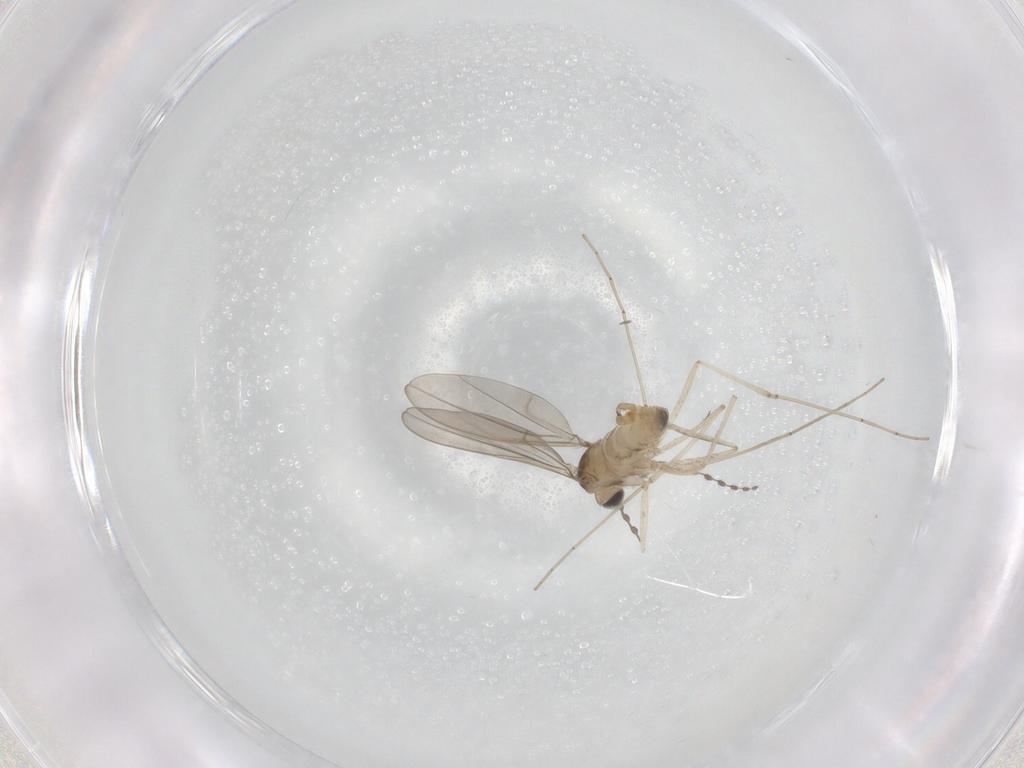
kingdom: Animalia
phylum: Arthropoda
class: Insecta
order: Diptera
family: Cecidomyiidae
